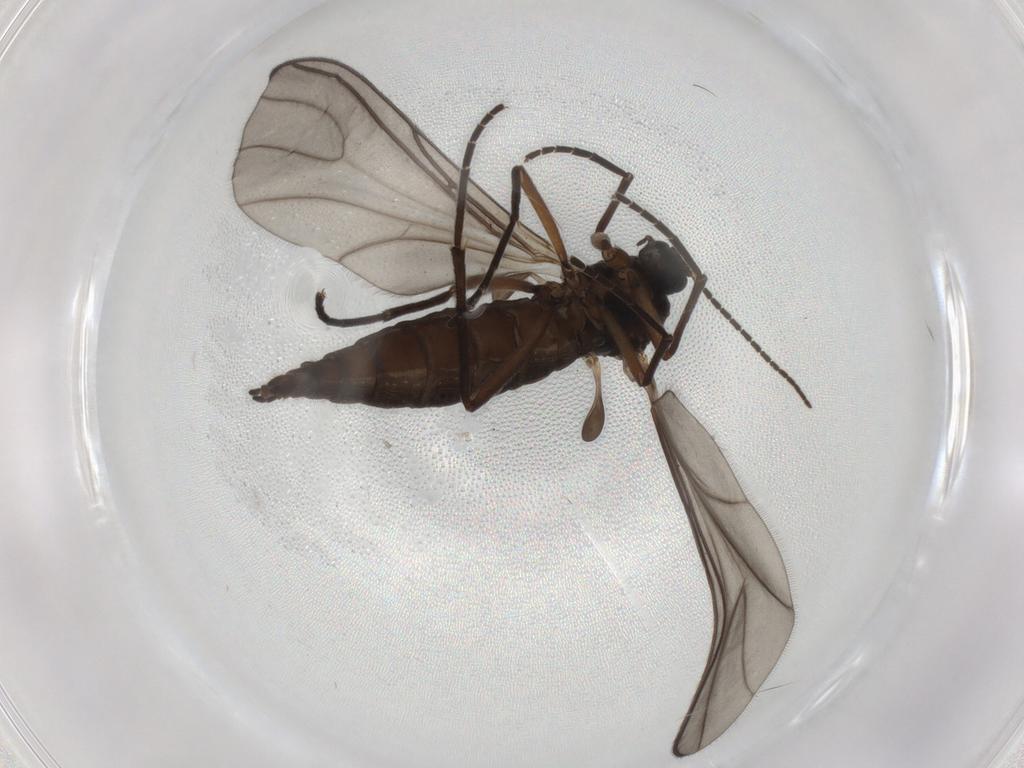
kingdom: Animalia
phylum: Arthropoda
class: Insecta
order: Diptera
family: Sciaridae
